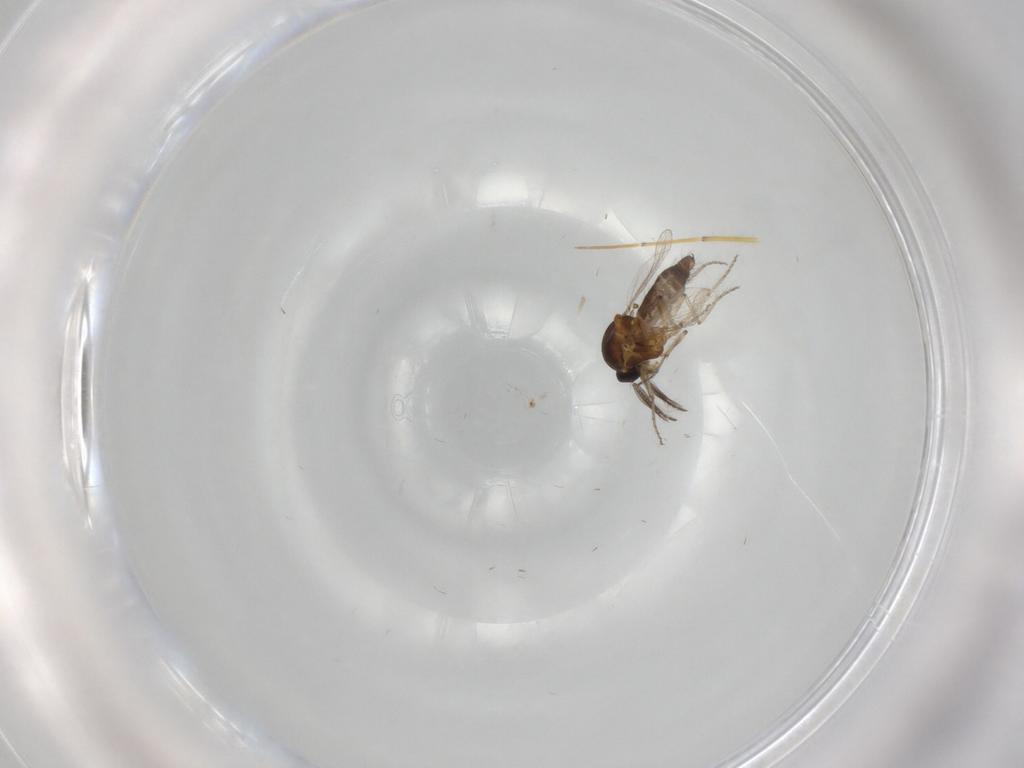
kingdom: Animalia
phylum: Arthropoda
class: Insecta
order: Diptera
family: Ceratopogonidae
